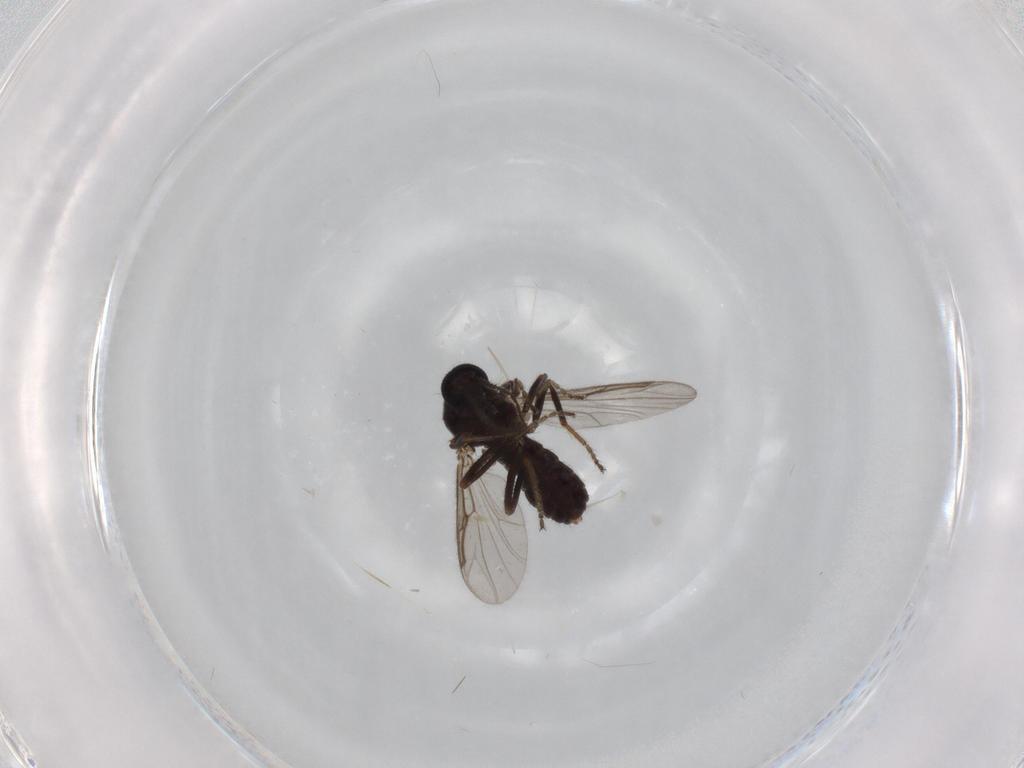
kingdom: Animalia
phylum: Arthropoda
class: Insecta
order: Diptera
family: Ceratopogonidae
